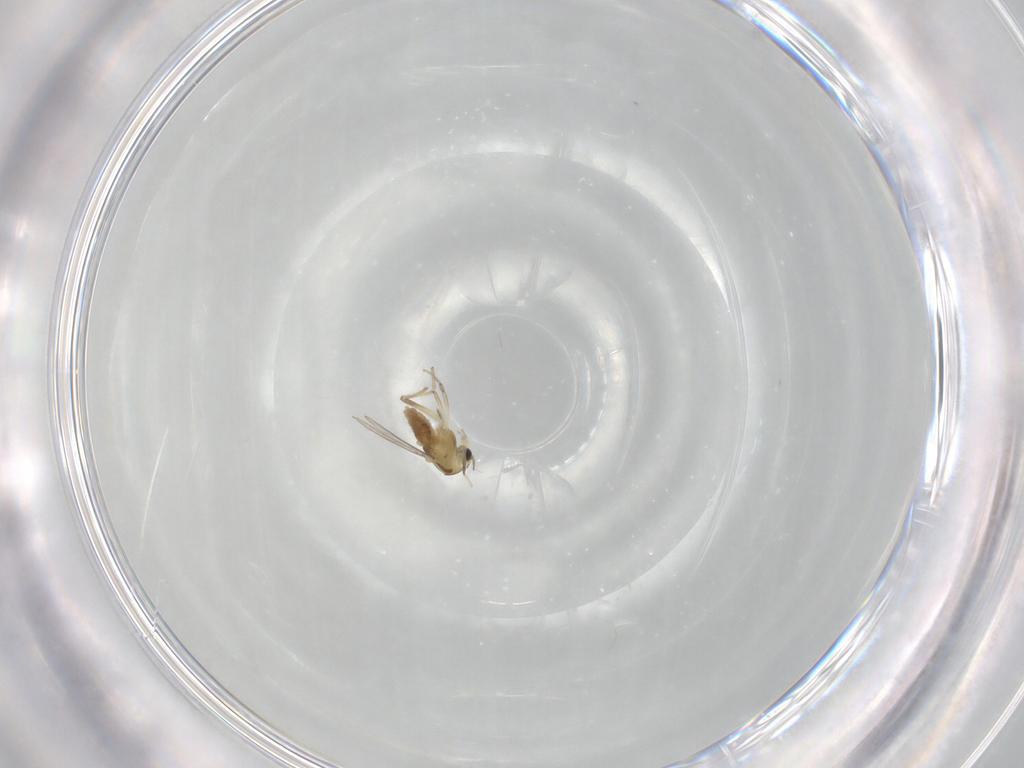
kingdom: Animalia
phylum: Arthropoda
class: Insecta
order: Diptera
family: Chironomidae
